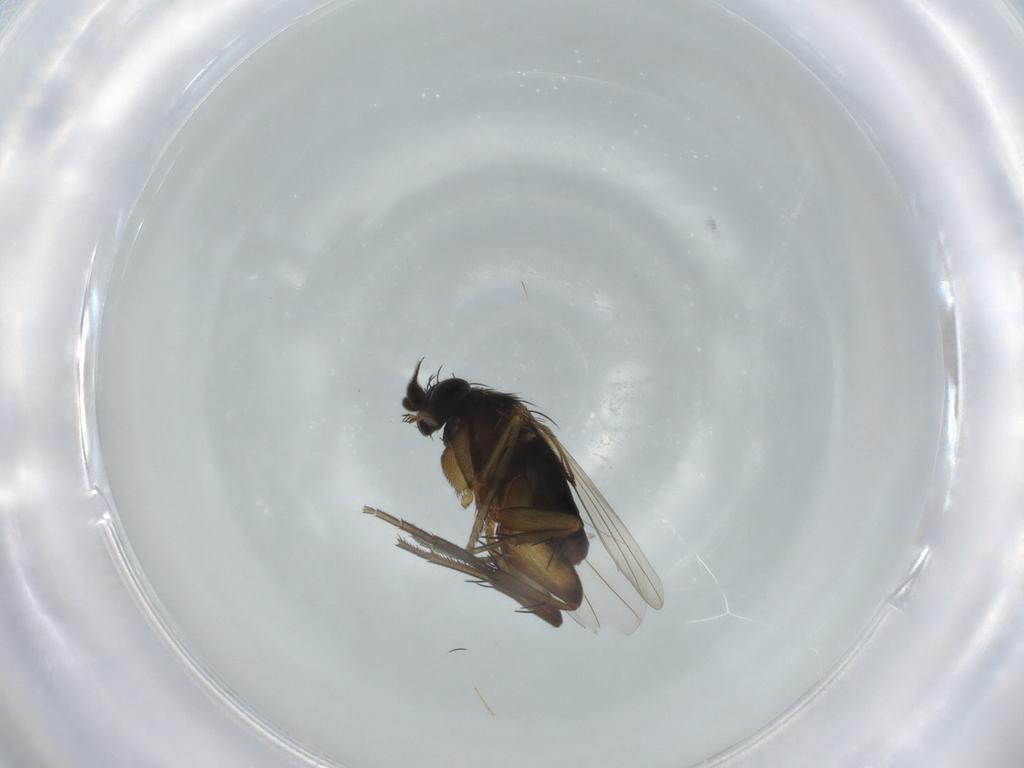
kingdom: Animalia
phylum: Arthropoda
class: Insecta
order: Diptera
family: Phoridae
